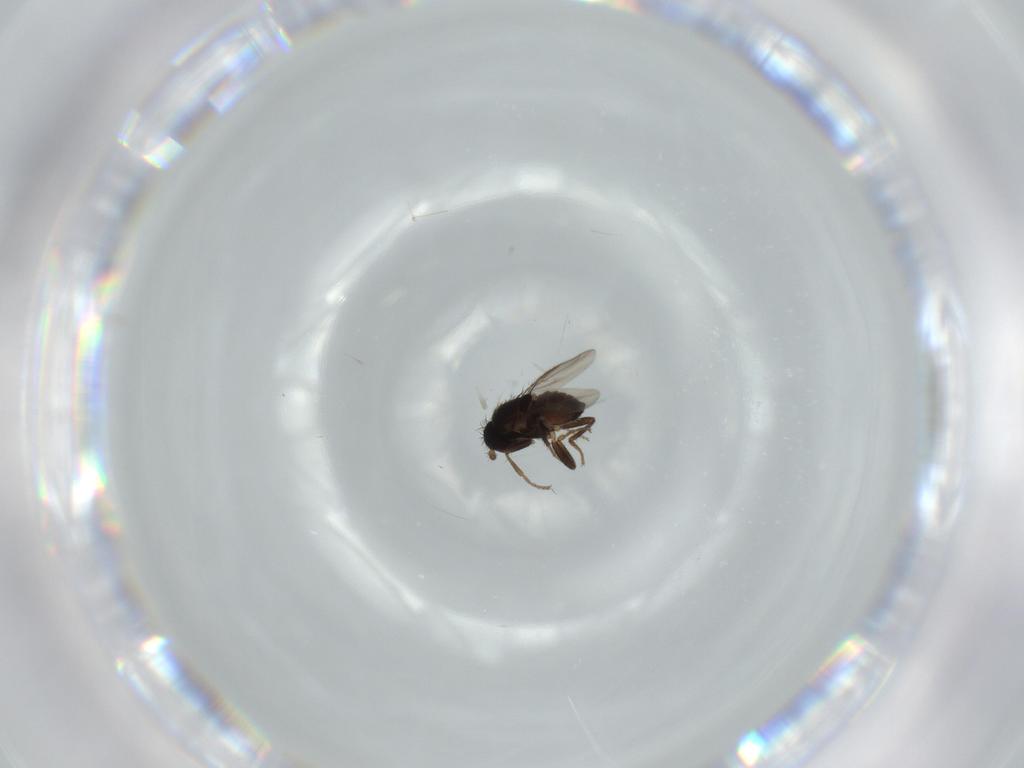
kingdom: Animalia
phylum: Arthropoda
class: Insecta
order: Diptera
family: Sphaeroceridae
